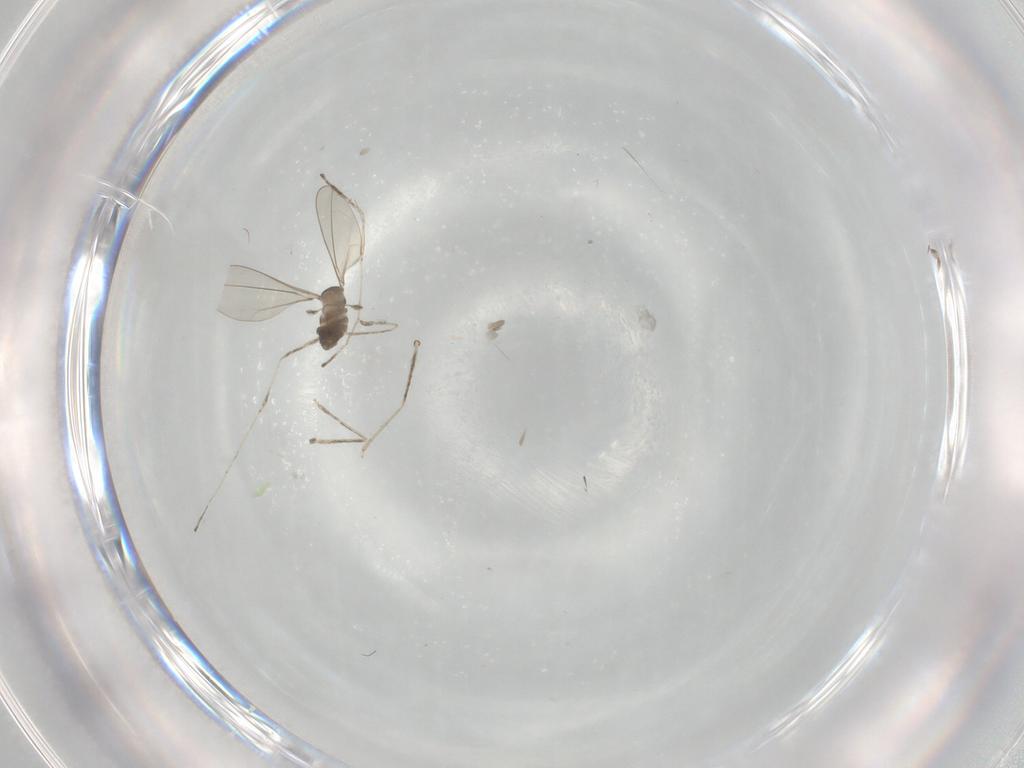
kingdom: Animalia
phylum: Arthropoda
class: Insecta
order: Diptera
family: Cecidomyiidae
